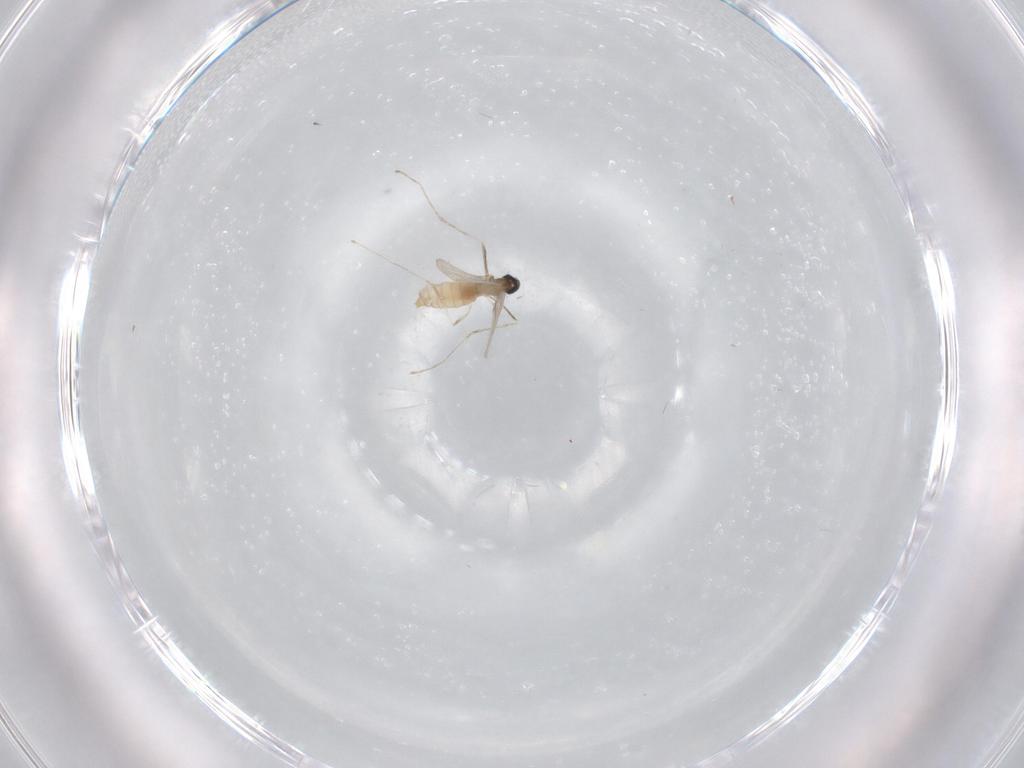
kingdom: Animalia
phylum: Arthropoda
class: Insecta
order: Diptera
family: Cecidomyiidae
